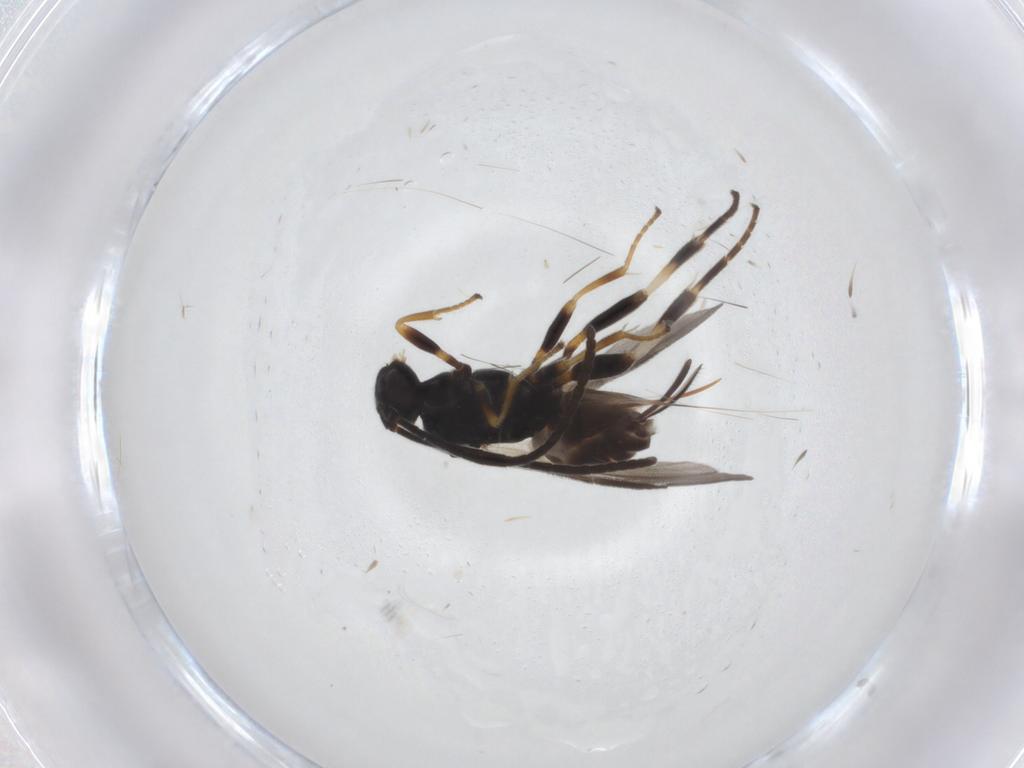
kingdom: Animalia
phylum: Arthropoda
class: Insecta
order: Hymenoptera
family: Braconidae
